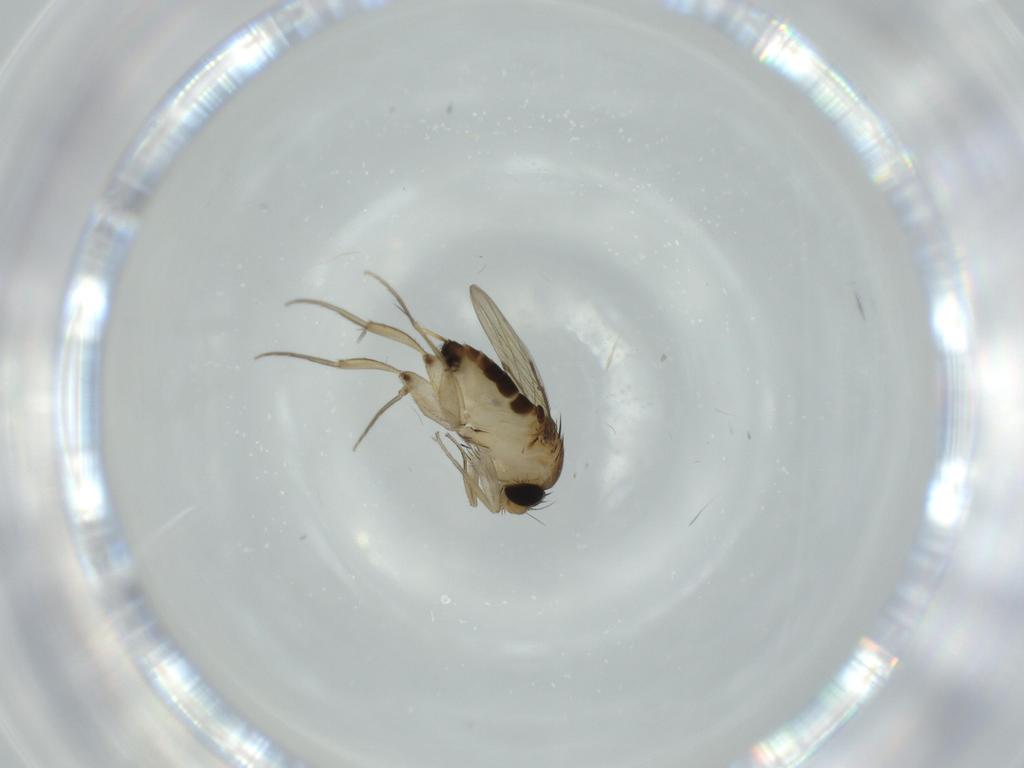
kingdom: Animalia
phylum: Arthropoda
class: Insecta
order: Diptera
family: Phoridae
